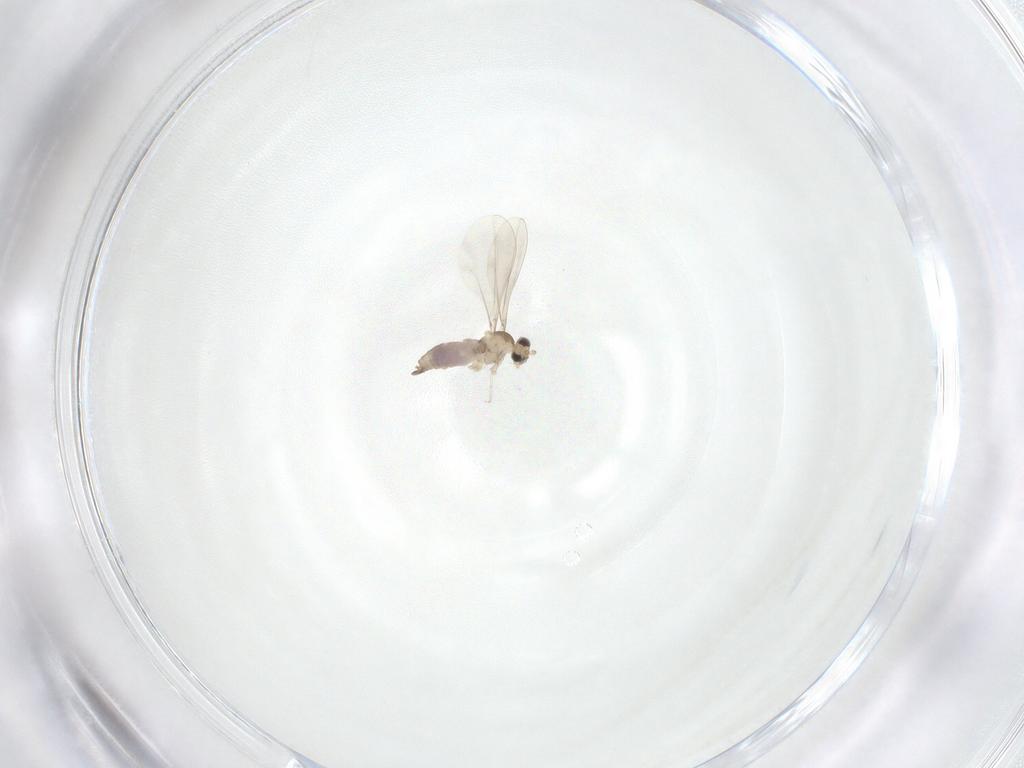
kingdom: Animalia
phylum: Arthropoda
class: Insecta
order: Diptera
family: Cecidomyiidae
